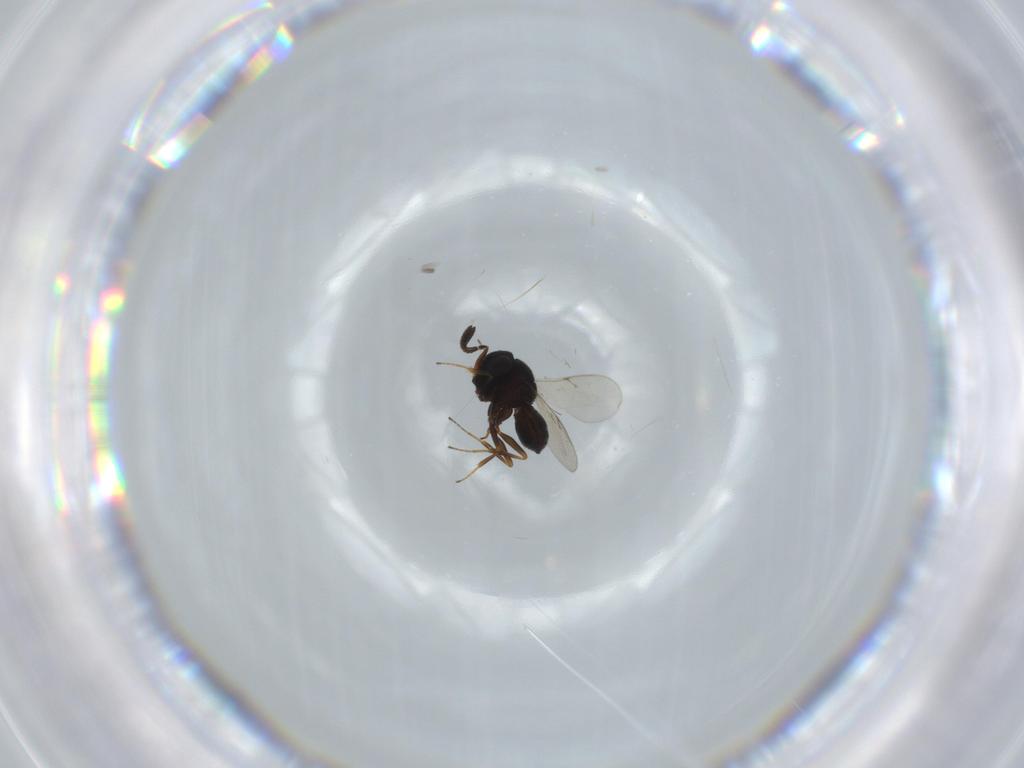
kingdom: Animalia
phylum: Arthropoda
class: Insecta
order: Hymenoptera
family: Scelionidae
